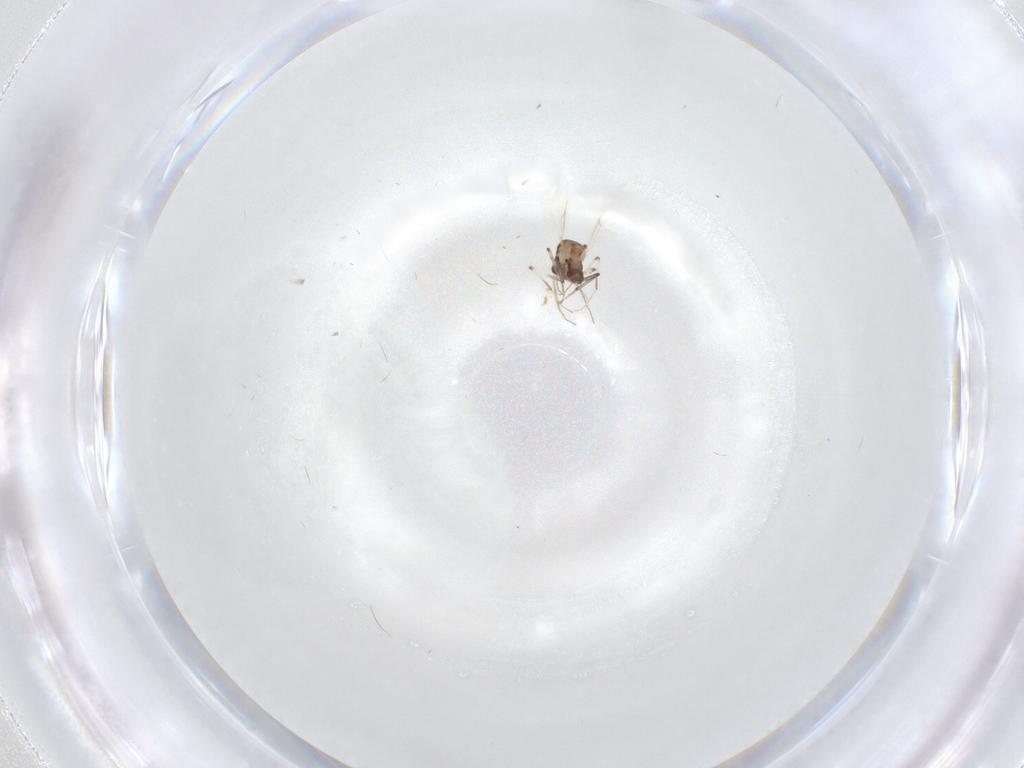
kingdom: Animalia
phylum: Arthropoda
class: Insecta
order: Diptera
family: Ceratopogonidae
